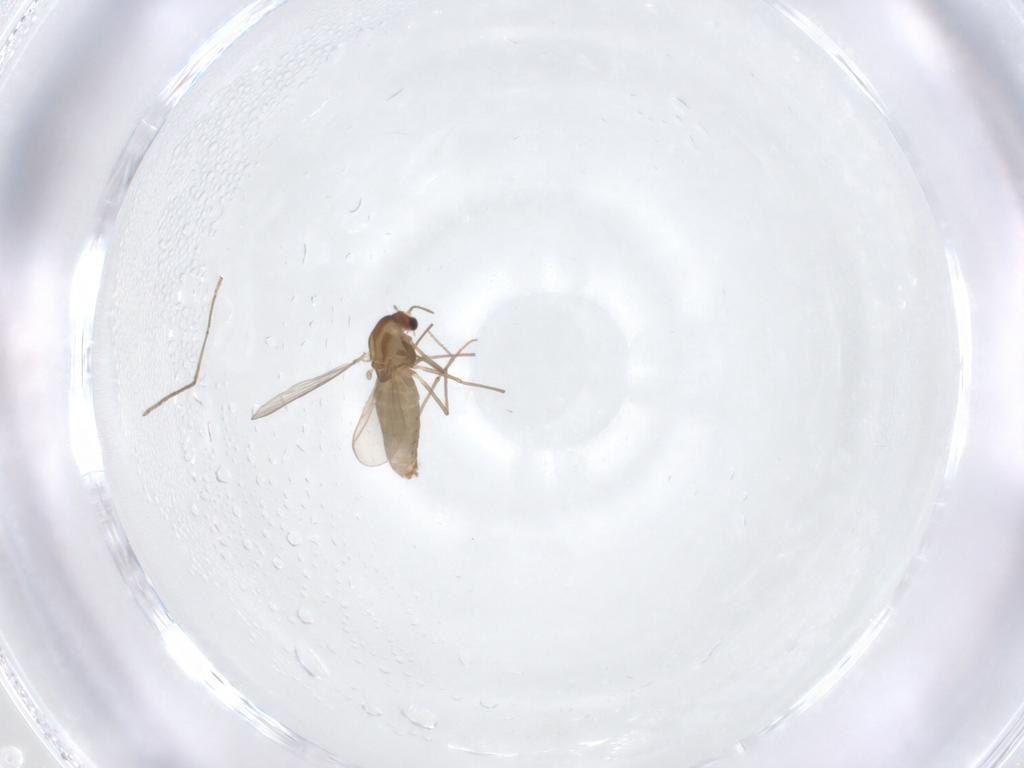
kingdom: Animalia
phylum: Arthropoda
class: Insecta
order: Diptera
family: Chironomidae
